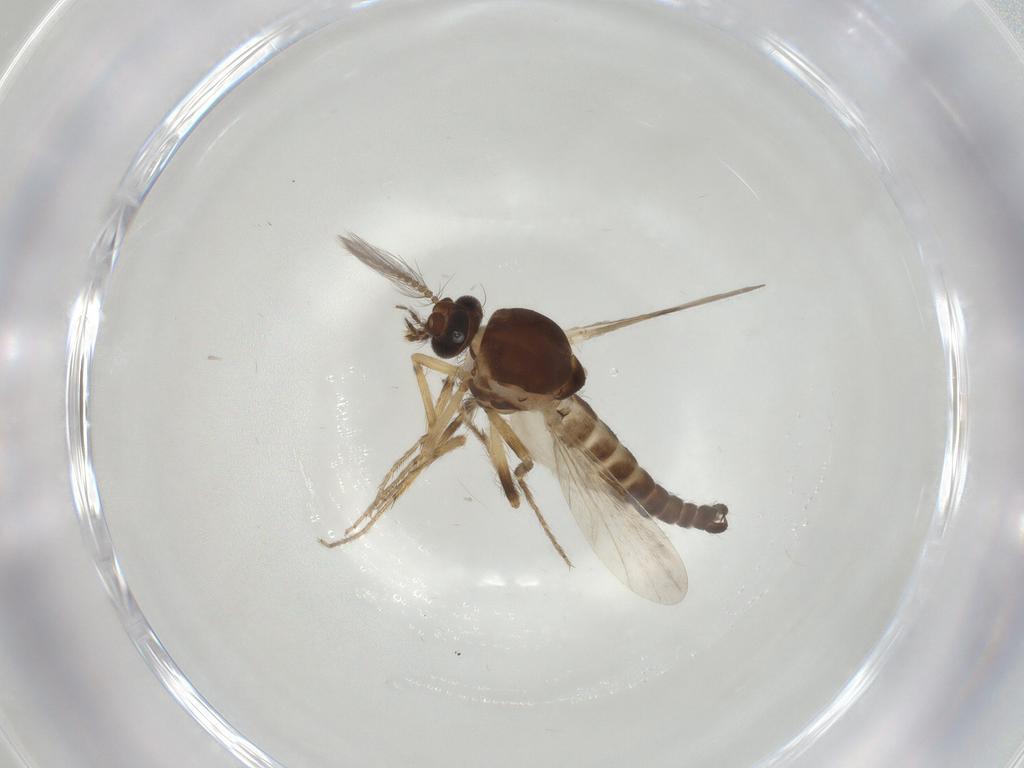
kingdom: Animalia
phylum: Arthropoda
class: Insecta
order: Diptera
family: Ceratopogonidae
